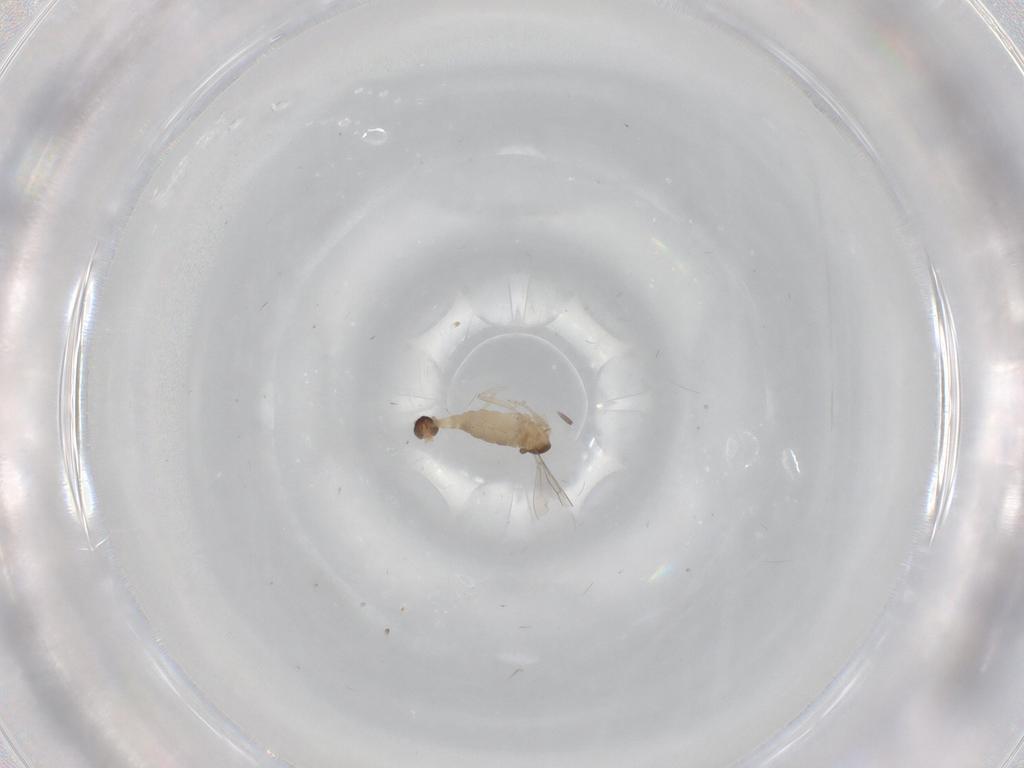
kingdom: Animalia
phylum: Arthropoda
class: Insecta
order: Diptera
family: Cecidomyiidae
